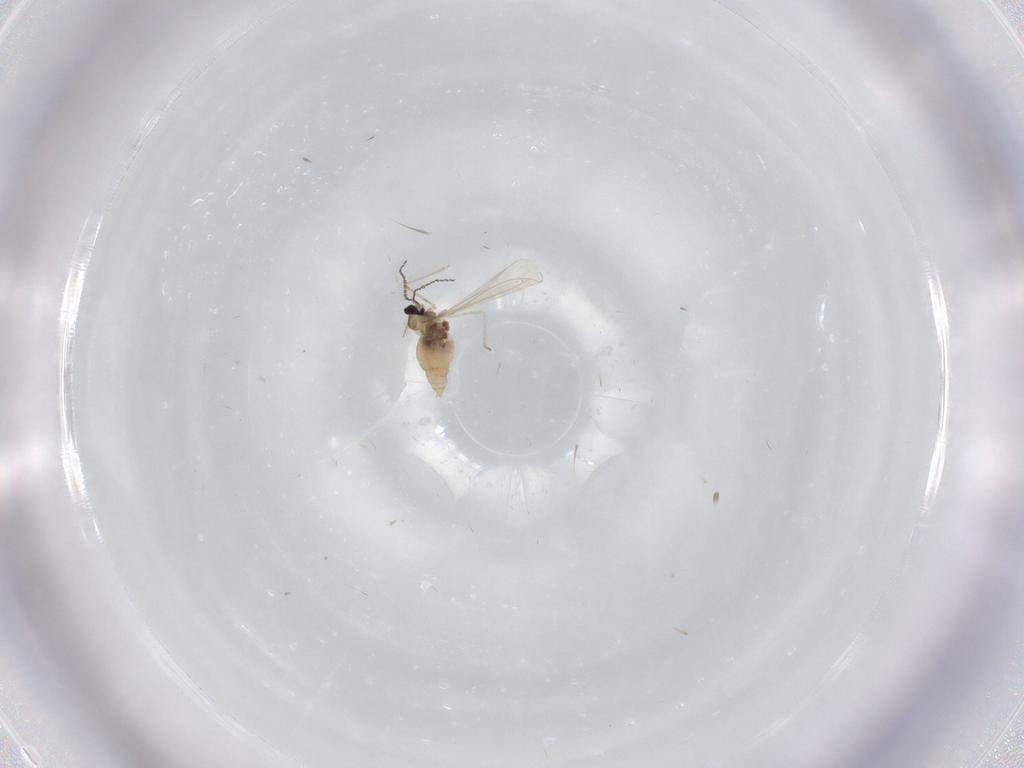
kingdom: Animalia
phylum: Arthropoda
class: Insecta
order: Diptera
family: Cecidomyiidae
